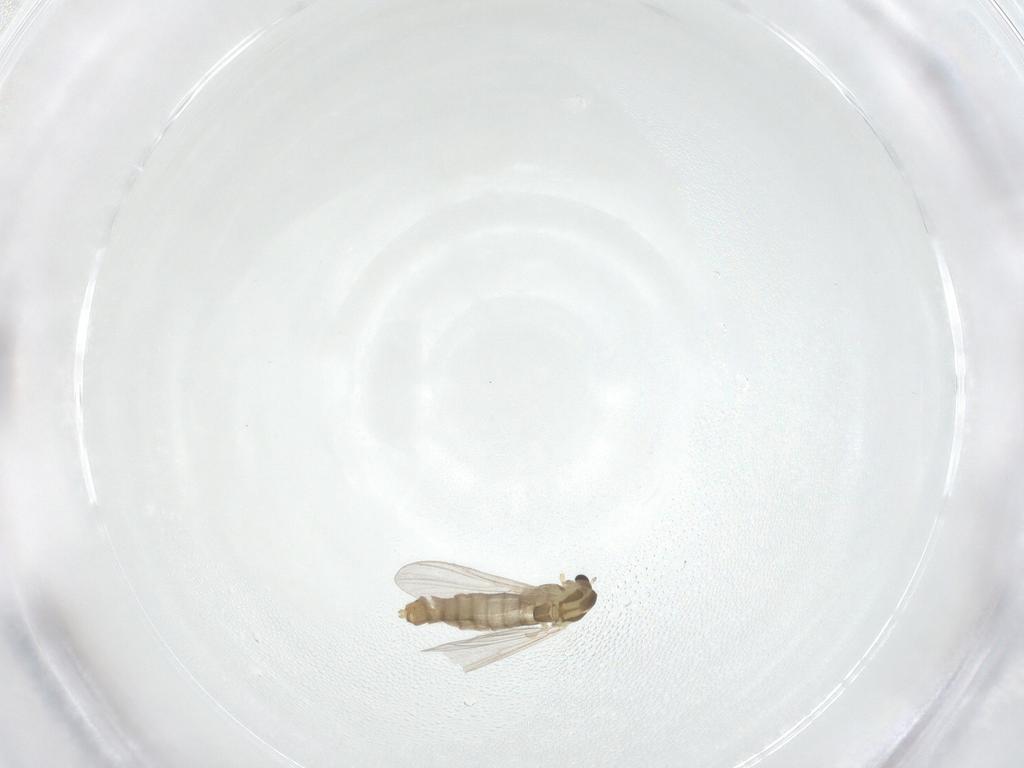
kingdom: Animalia
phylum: Arthropoda
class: Insecta
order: Diptera
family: Chironomidae
